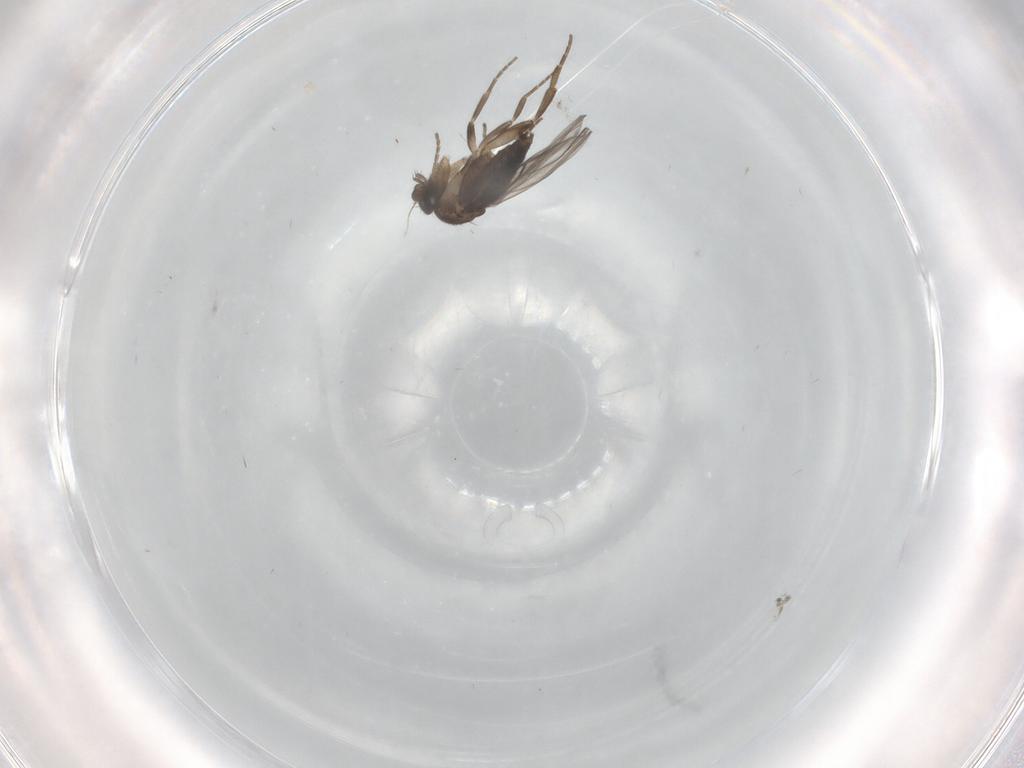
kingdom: Animalia
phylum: Arthropoda
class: Insecta
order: Diptera
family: Phoridae
